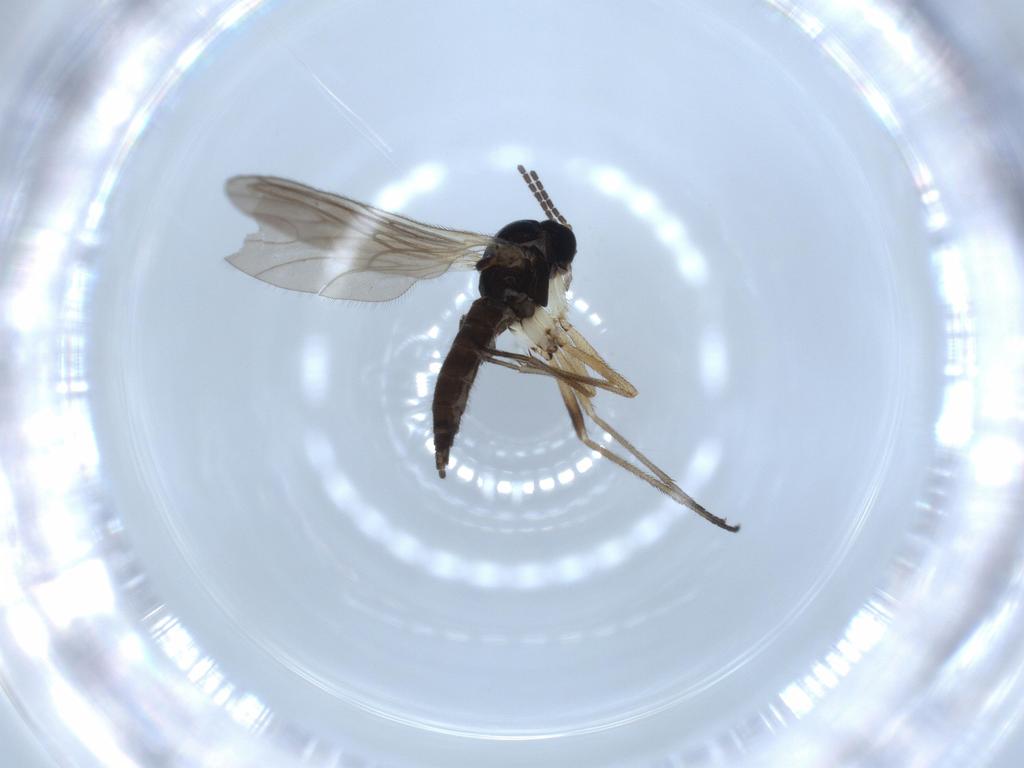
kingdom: Animalia
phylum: Arthropoda
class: Insecta
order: Diptera
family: Sciaridae
